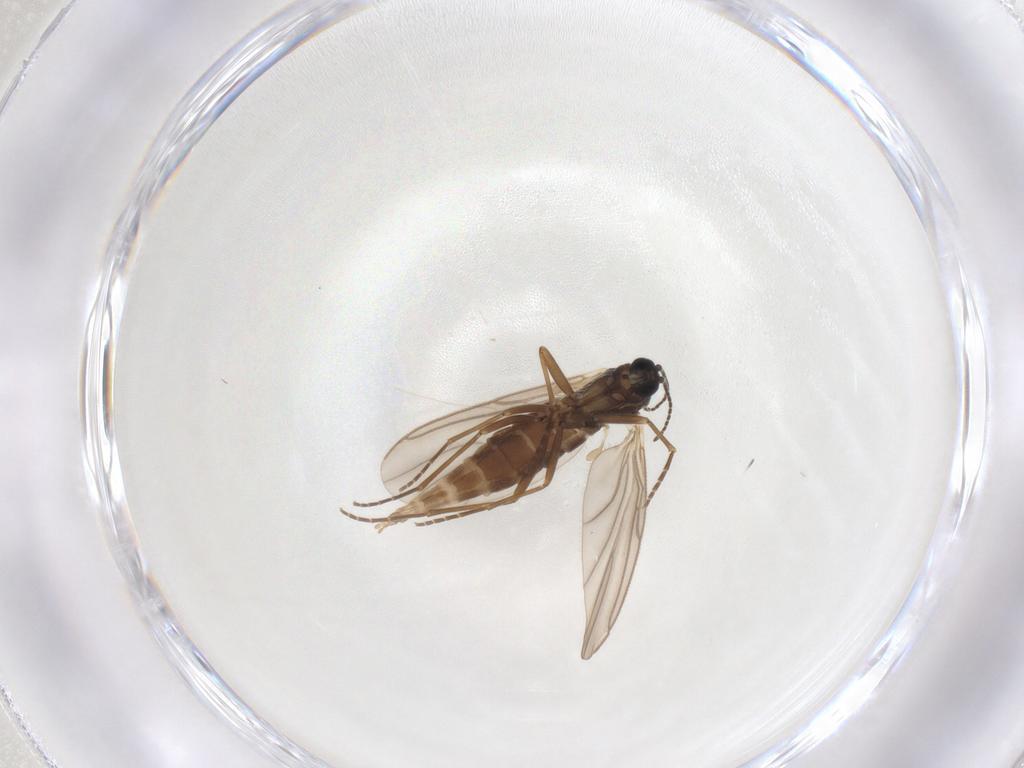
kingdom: Animalia
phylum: Arthropoda
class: Insecta
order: Diptera
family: Sciaridae
